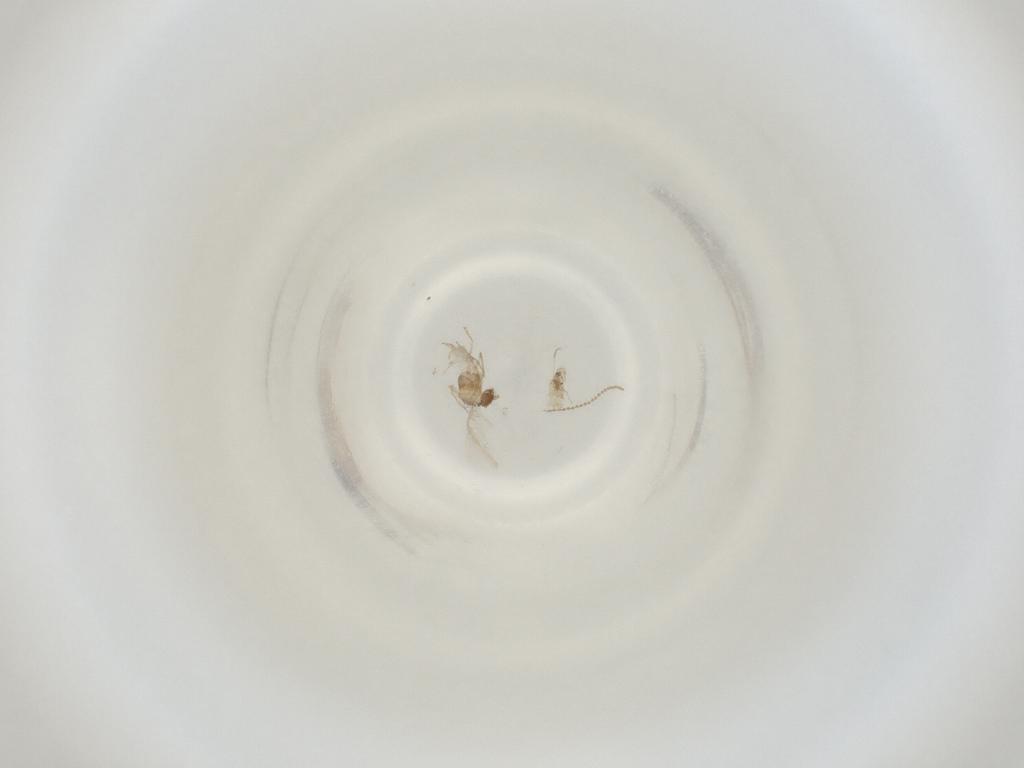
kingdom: Animalia
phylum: Arthropoda
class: Insecta
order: Diptera
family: Cecidomyiidae
